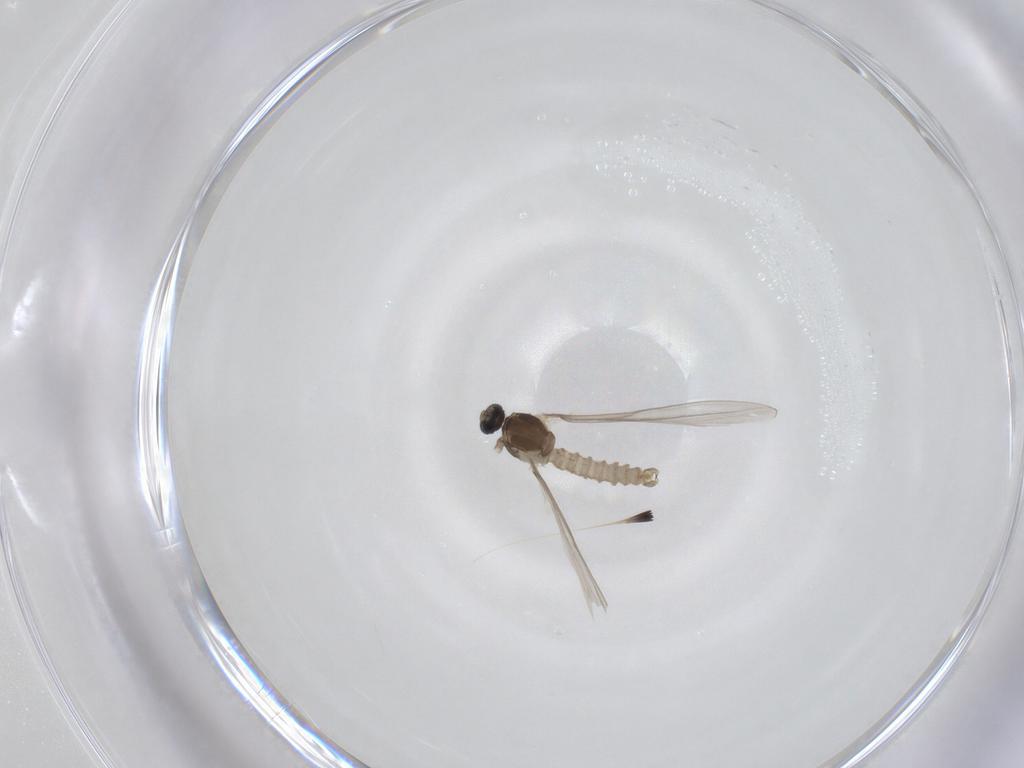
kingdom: Animalia
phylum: Arthropoda
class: Insecta
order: Diptera
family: Cecidomyiidae
